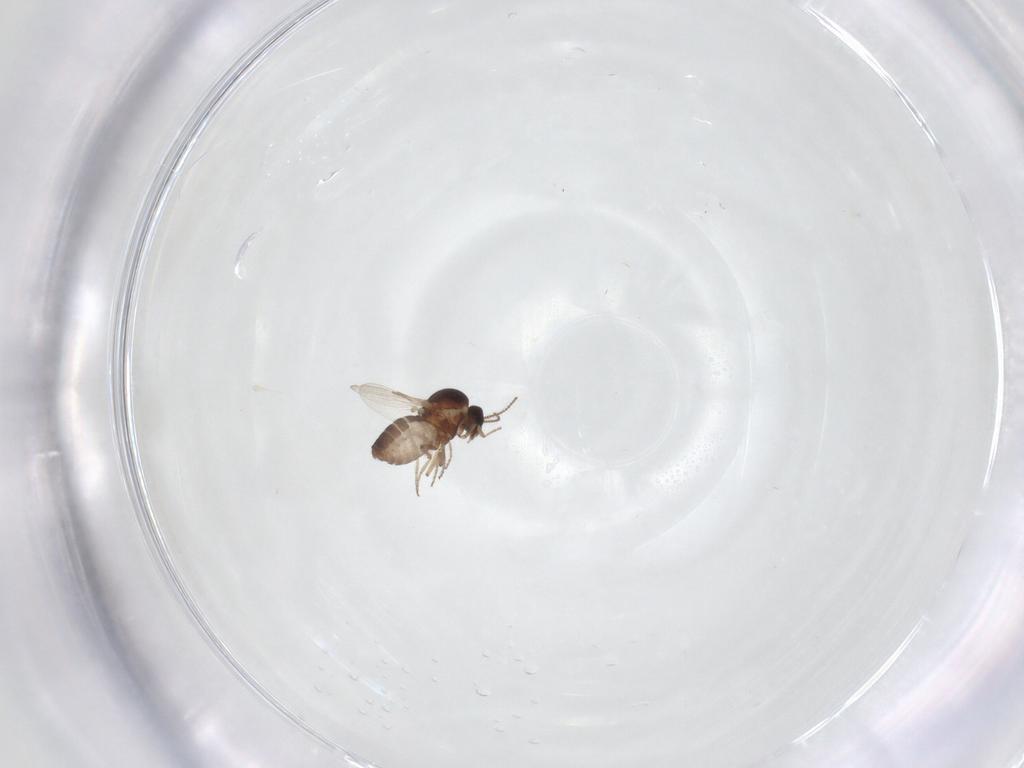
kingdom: Animalia
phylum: Arthropoda
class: Insecta
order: Diptera
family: Ceratopogonidae
